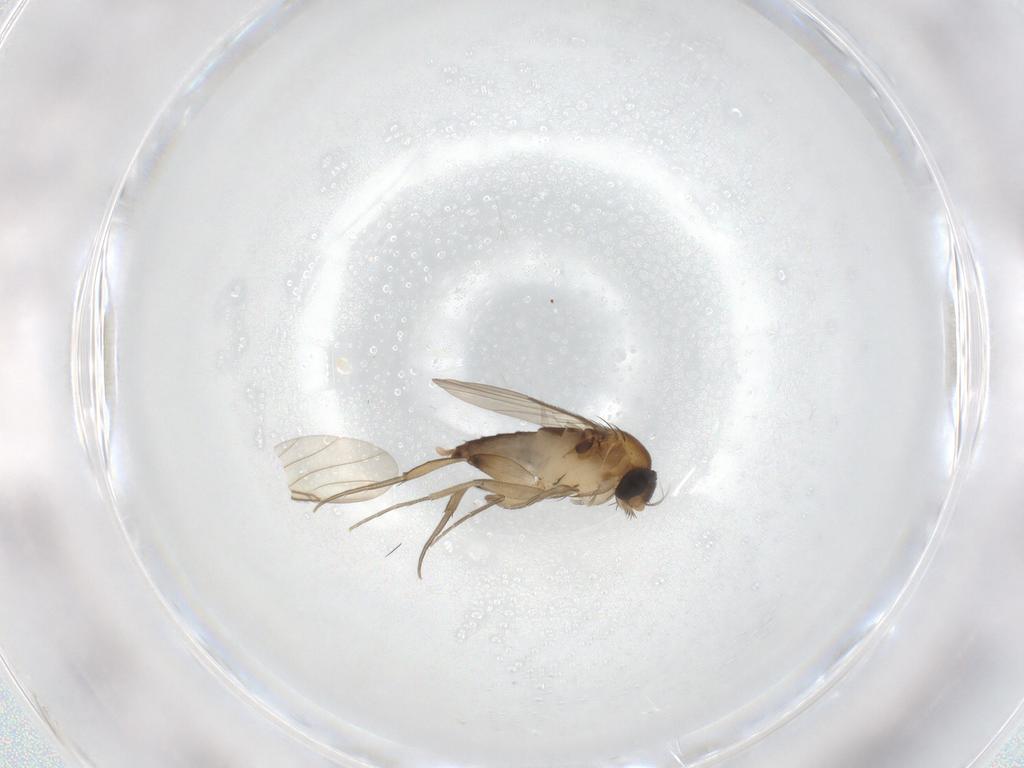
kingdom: Animalia
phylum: Arthropoda
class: Insecta
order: Diptera
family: Phoridae
